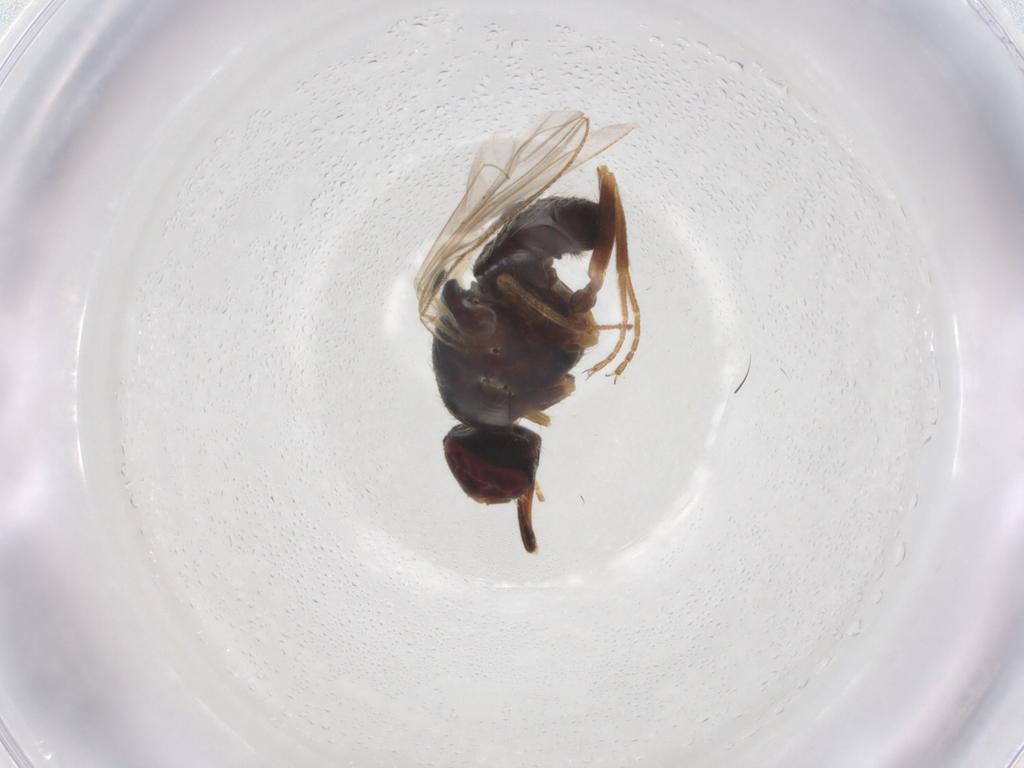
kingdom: Animalia
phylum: Arthropoda
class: Insecta
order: Diptera
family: Muscidae
